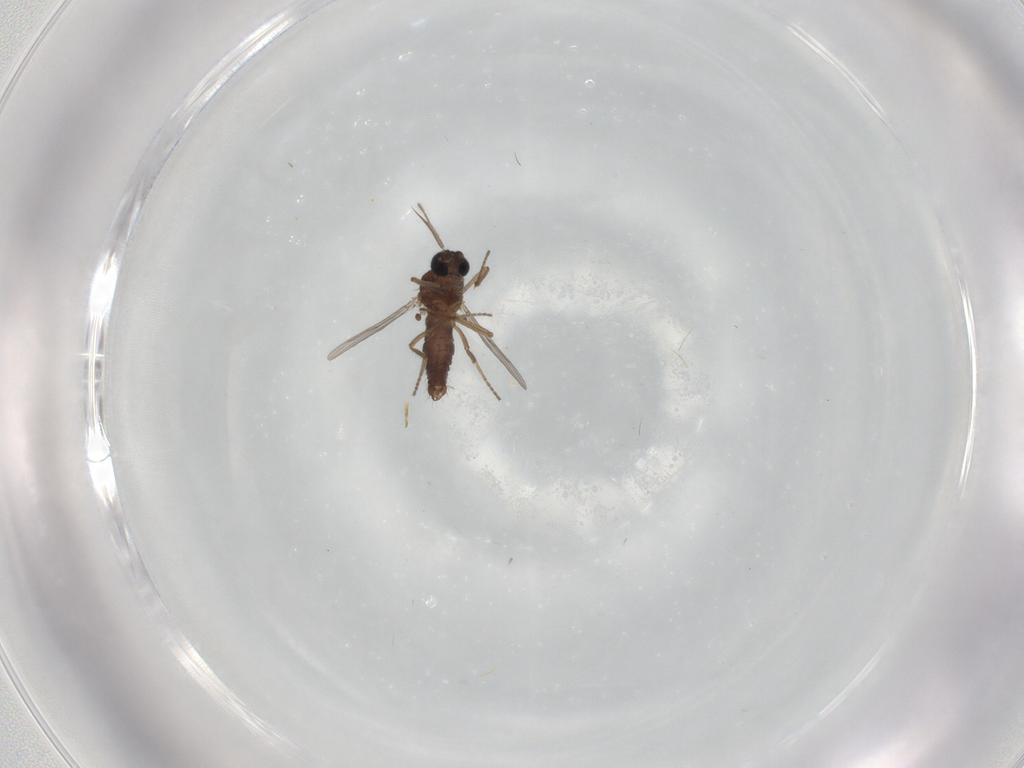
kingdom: Animalia
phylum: Arthropoda
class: Insecta
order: Diptera
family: Ceratopogonidae
